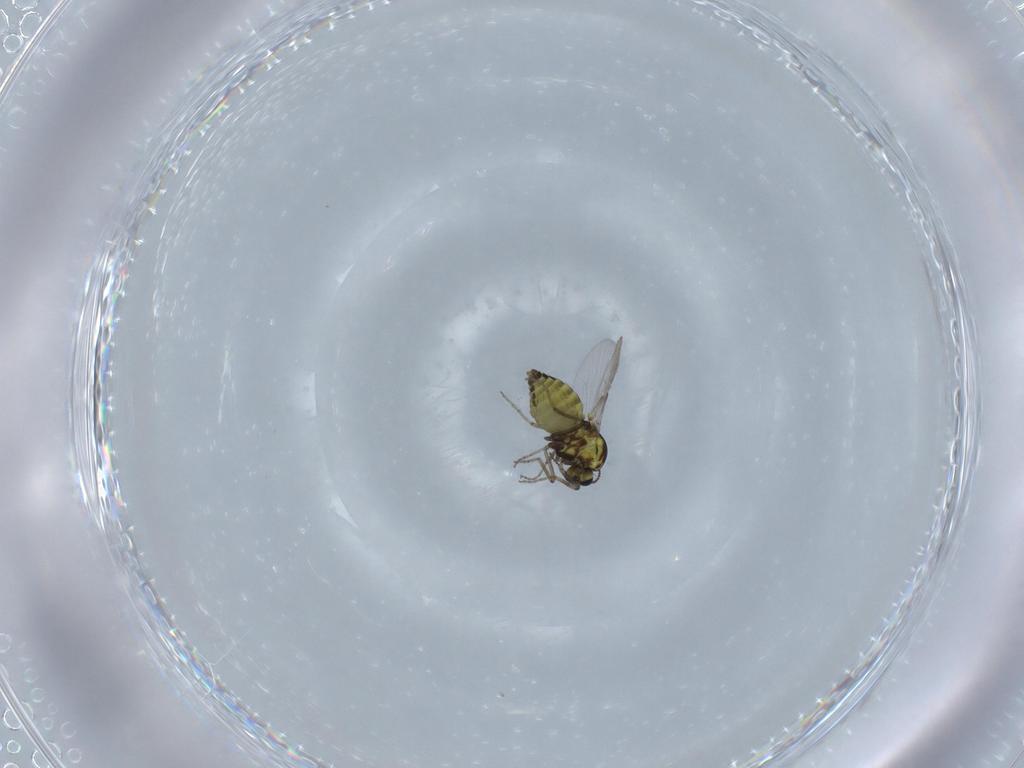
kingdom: Animalia
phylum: Arthropoda
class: Insecta
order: Diptera
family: Ceratopogonidae
